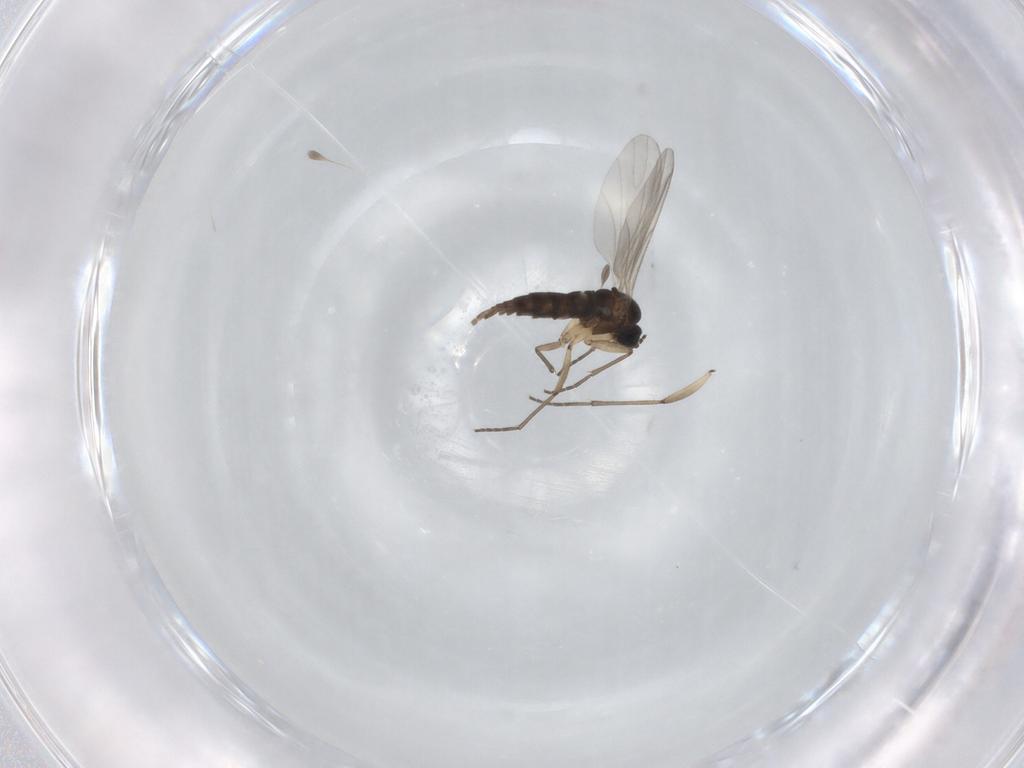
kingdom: Animalia
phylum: Arthropoda
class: Insecta
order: Diptera
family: Sciaridae
